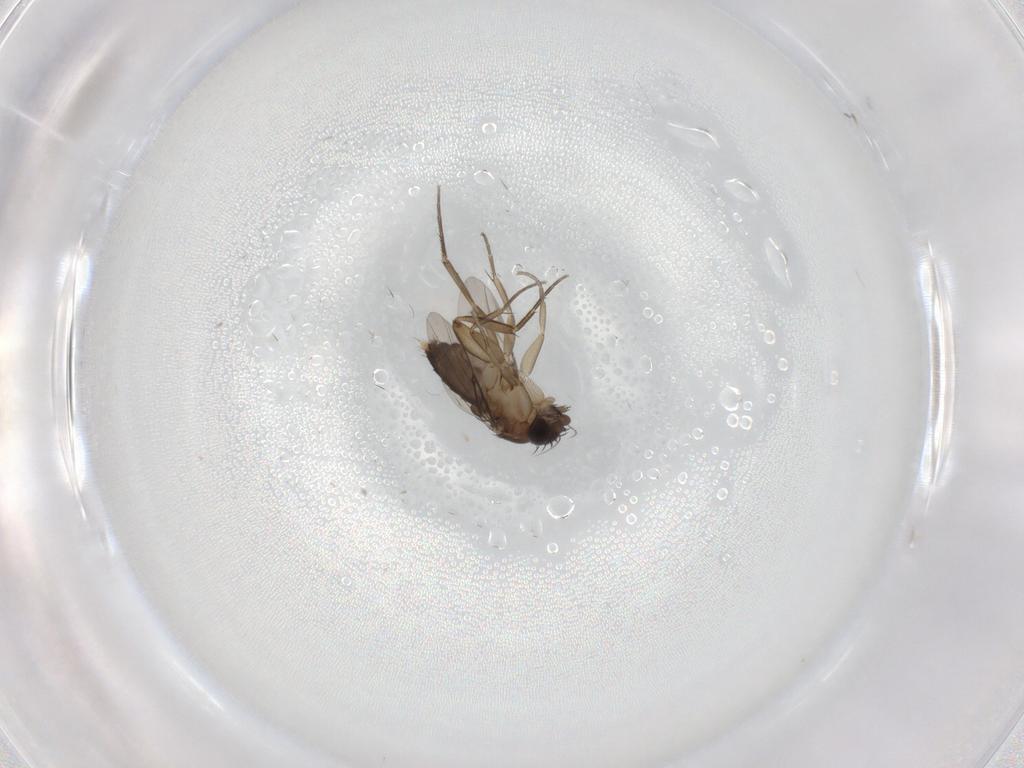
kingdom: Animalia
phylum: Arthropoda
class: Insecta
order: Diptera
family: Phoridae
